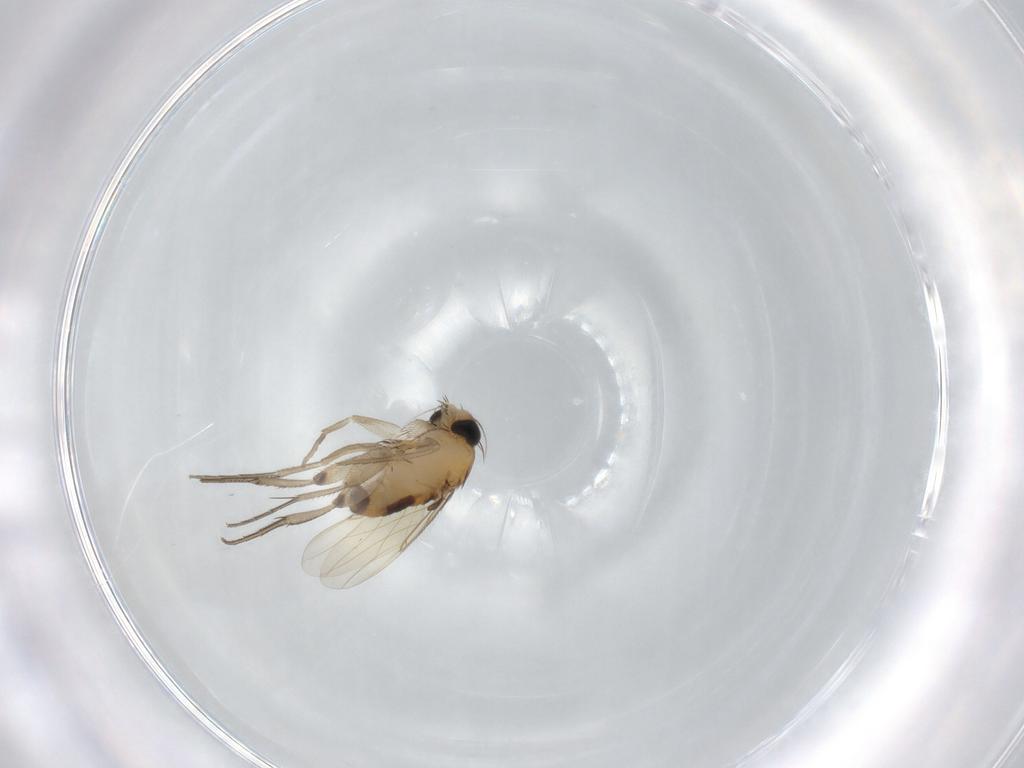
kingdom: Animalia
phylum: Arthropoda
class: Insecta
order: Diptera
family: Phoridae
